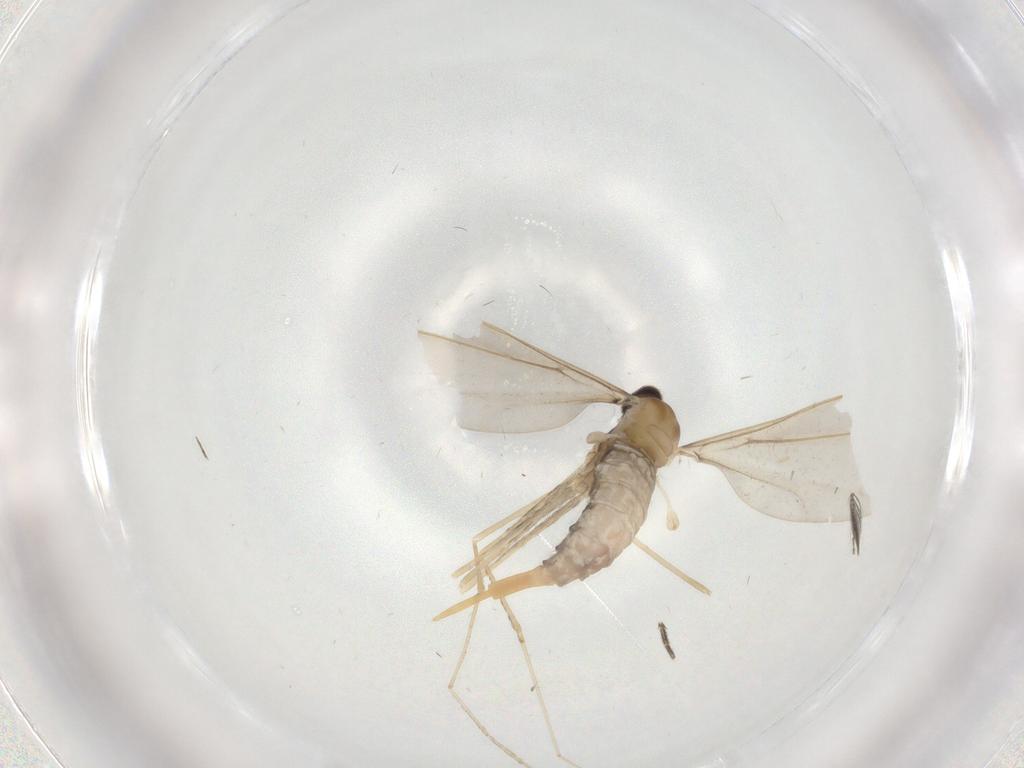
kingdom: Animalia
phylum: Arthropoda
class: Insecta
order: Diptera
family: Mycetophilidae
